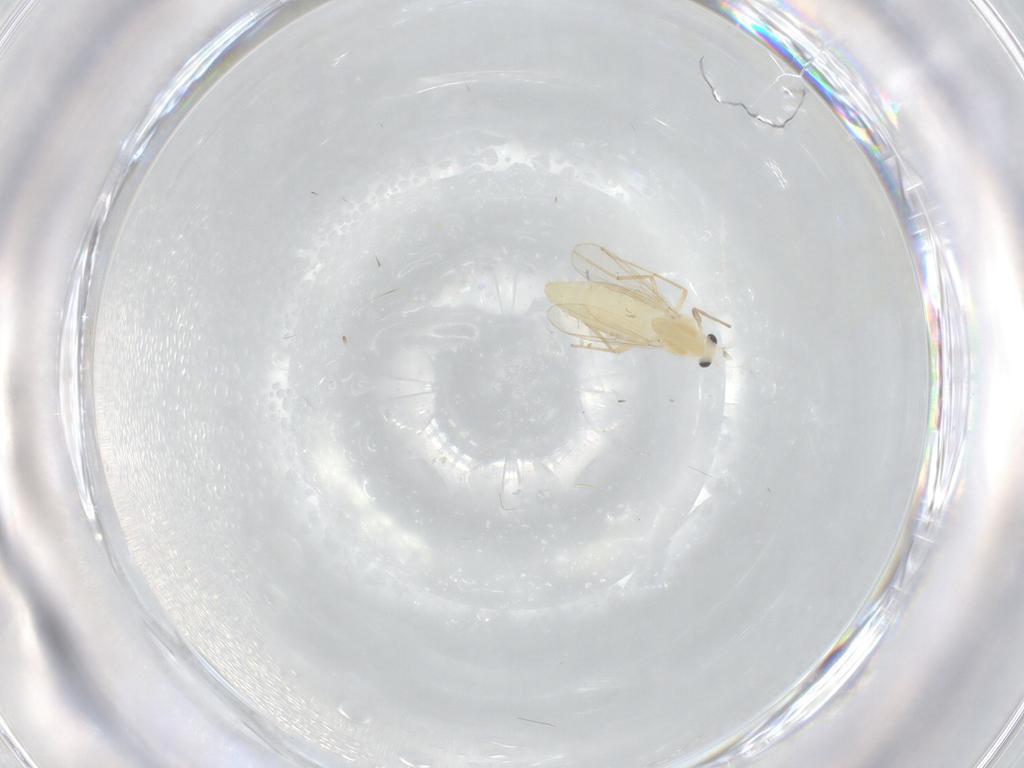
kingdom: Animalia
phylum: Arthropoda
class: Insecta
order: Diptera
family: Chironomidae
